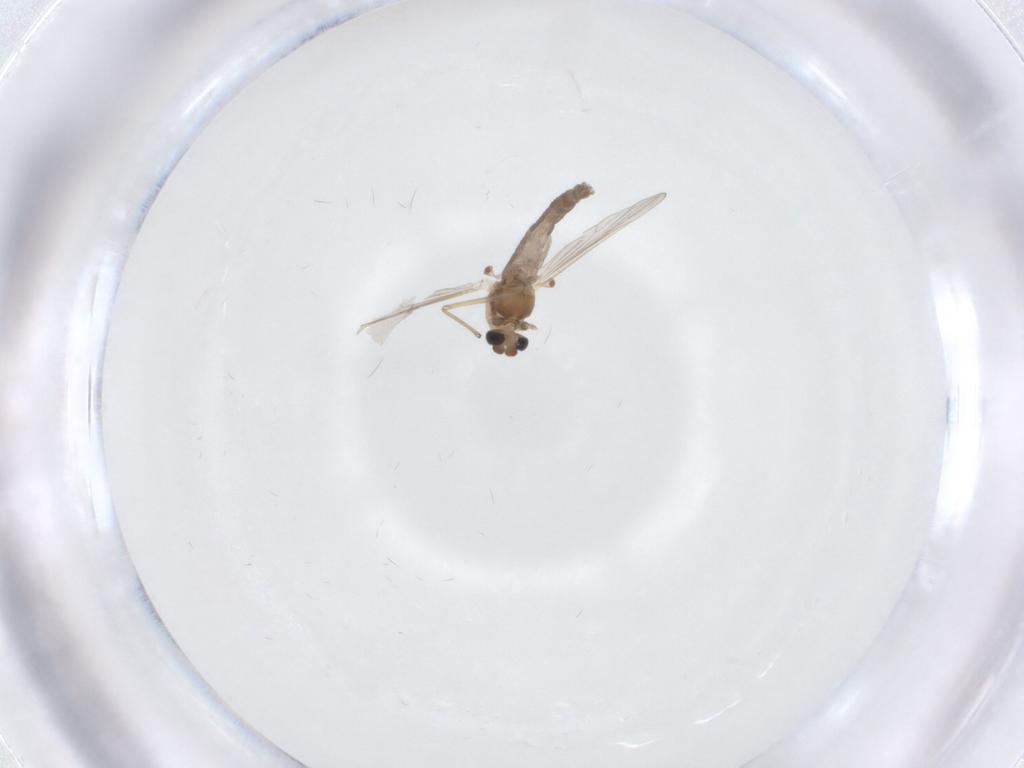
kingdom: Animalia
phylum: Arthropoda
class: Insecta
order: Diptera
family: Chironomidae
